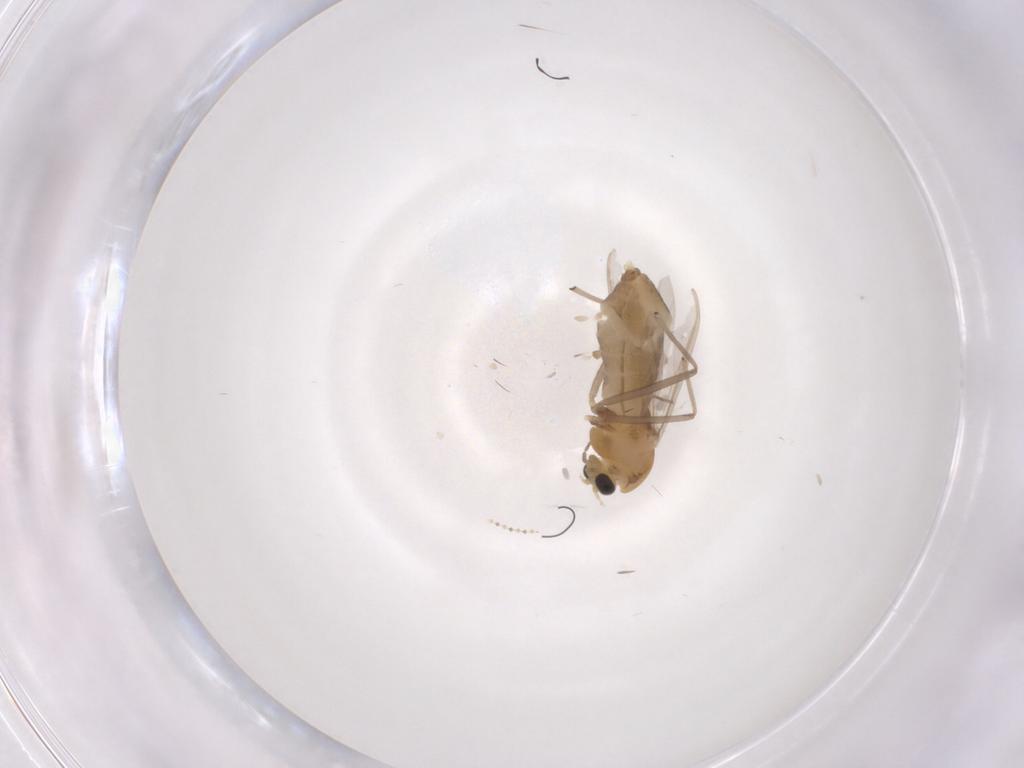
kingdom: Animalia
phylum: Arthropoda
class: Insecta
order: Diptera
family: Chironomidae
